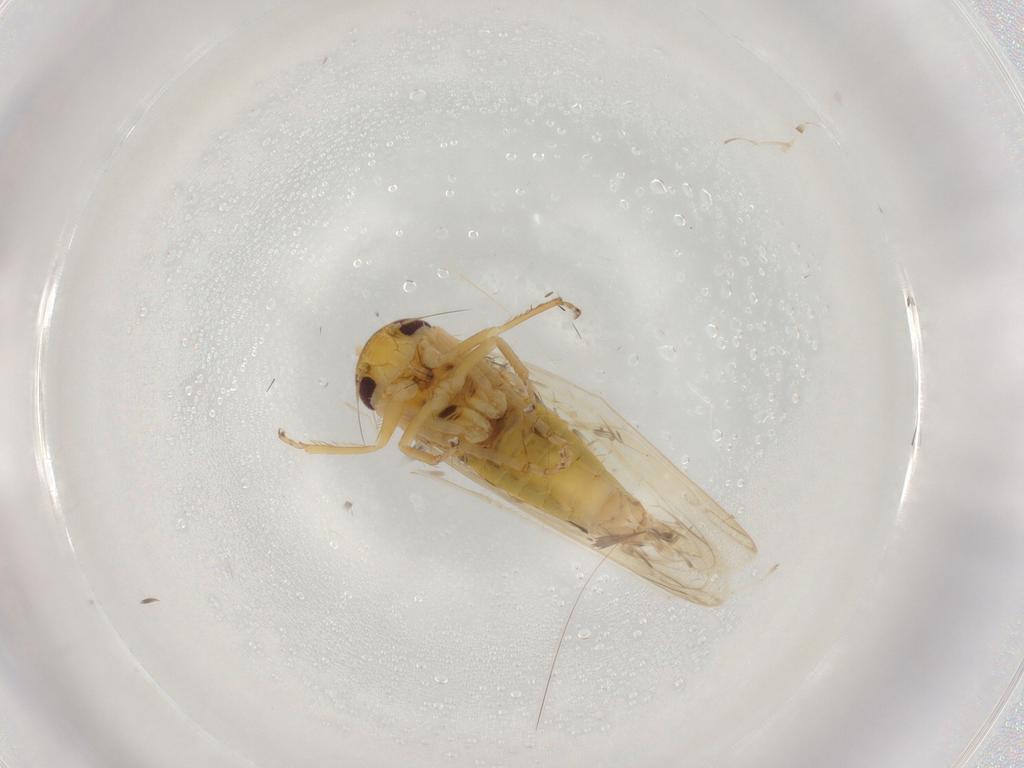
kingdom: Animalia
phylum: Arthropoda
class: Insecta
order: Hemiptera
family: Cicadellidae
